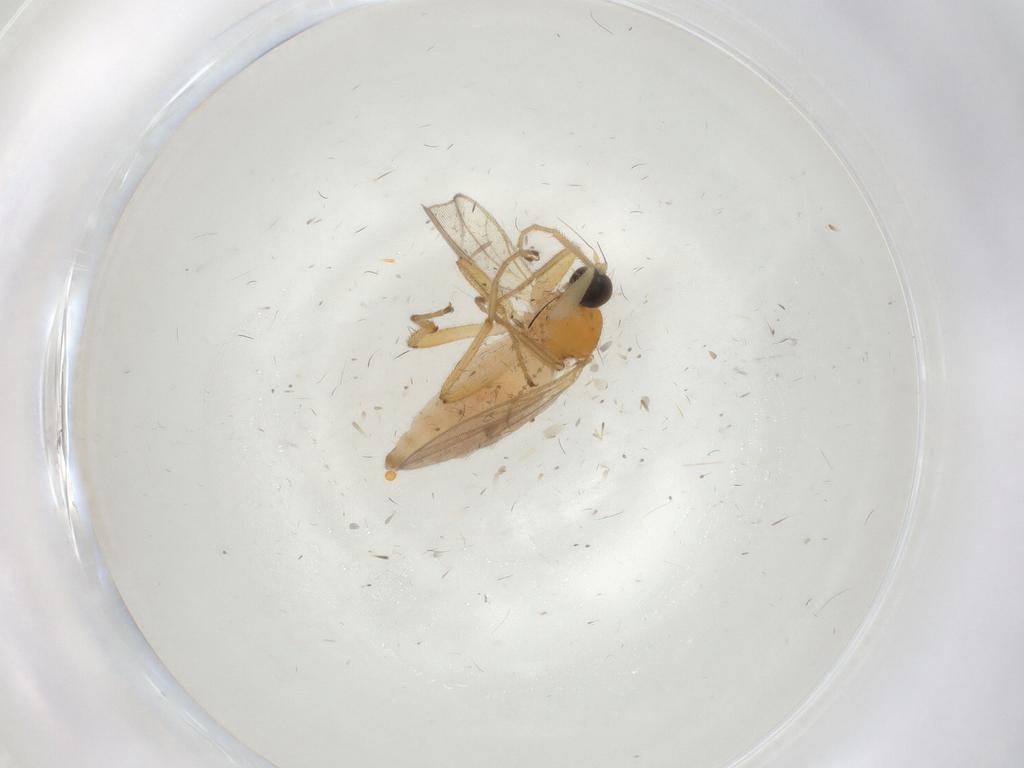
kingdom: Animalia
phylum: Arthropoda
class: Insecta
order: Diptera
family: Hybotidae
